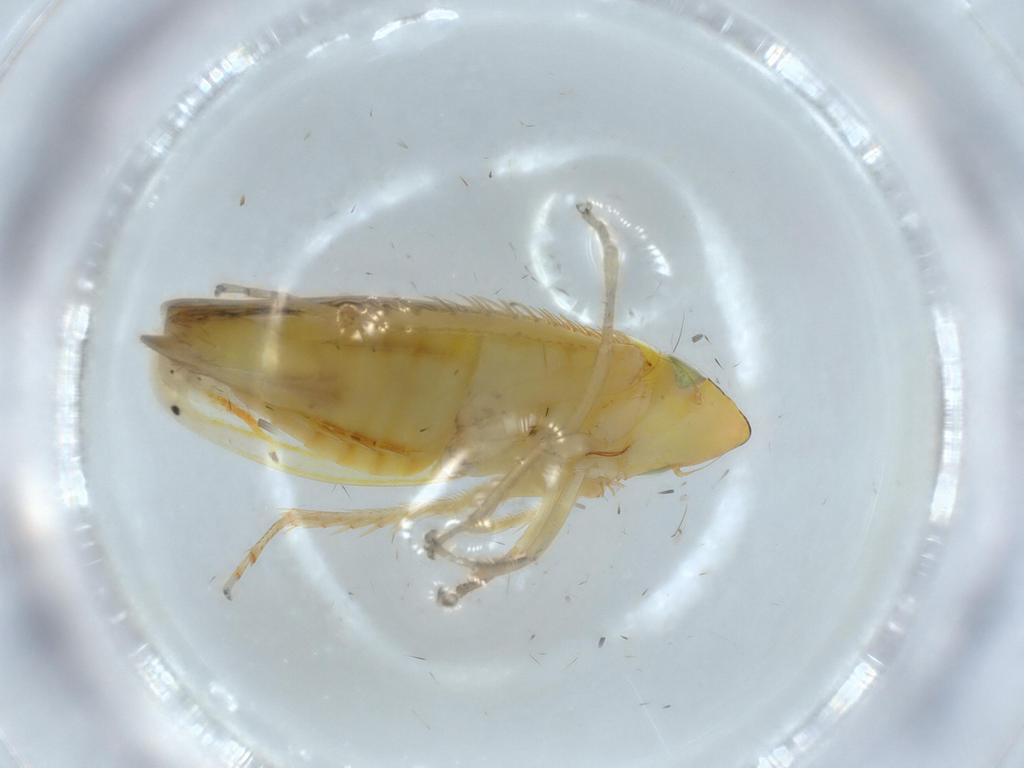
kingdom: Animalia
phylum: Arthropoda
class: Insecta
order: Hemiptera
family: Cicadellidae
